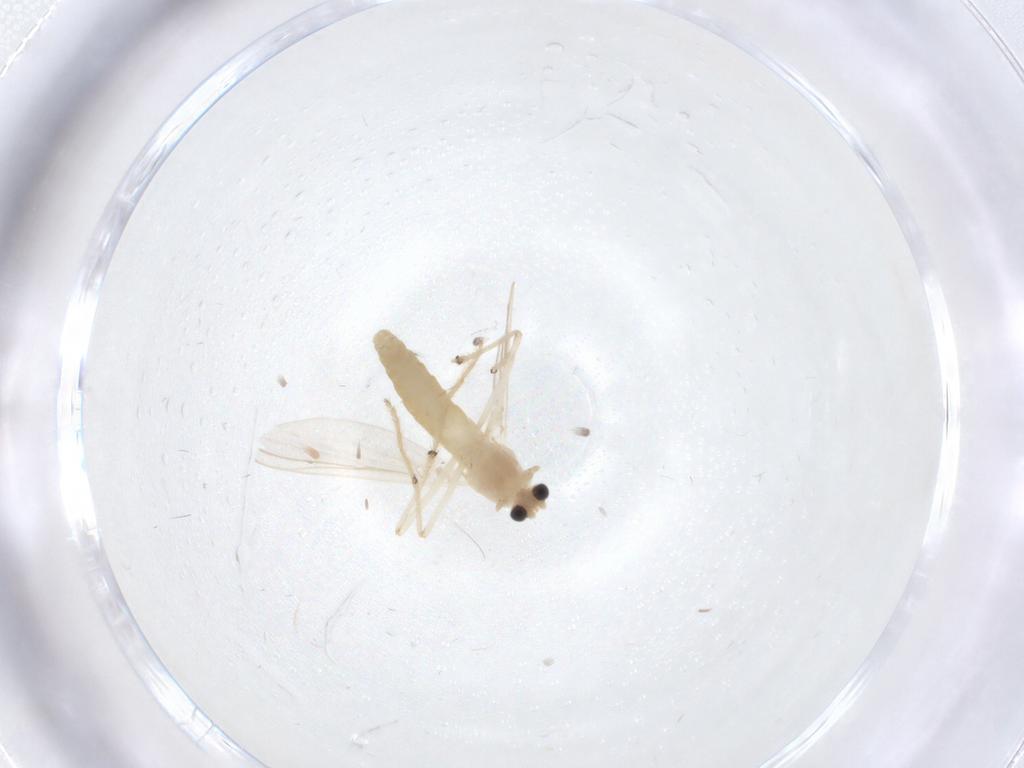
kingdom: Animalia
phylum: Arthropoda
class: Insecta
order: Diptera
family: Chironomidae
